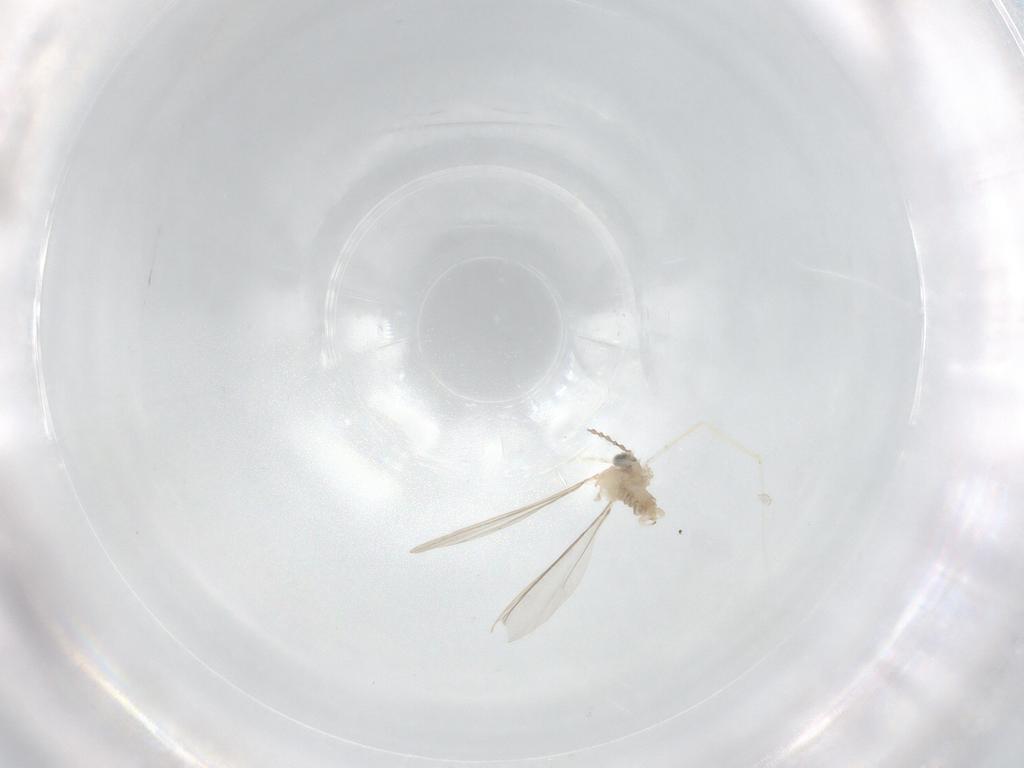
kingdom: Animalia
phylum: Arthropoda
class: Insecta
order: Diptera
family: Cecidomyiidae
